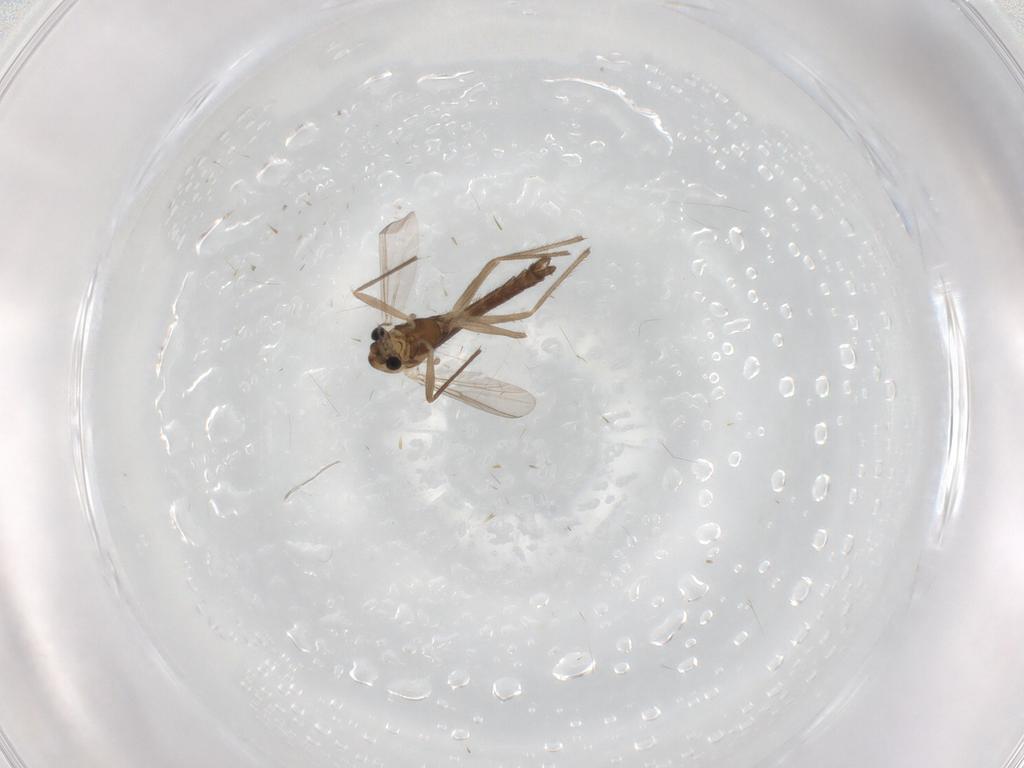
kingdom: Animalia
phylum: Arthropoda
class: Insecta
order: Diptera
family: Chironomidae
